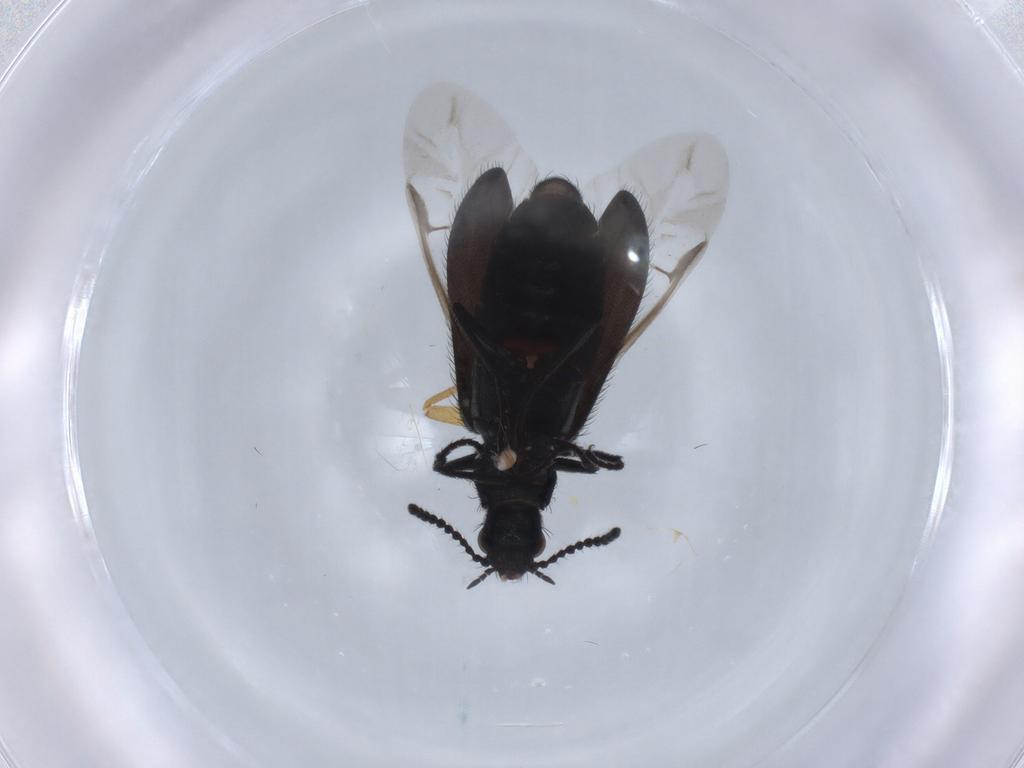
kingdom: Animalia
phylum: Arthropoda
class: Insecta
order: Coleoptera
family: Melyridae
